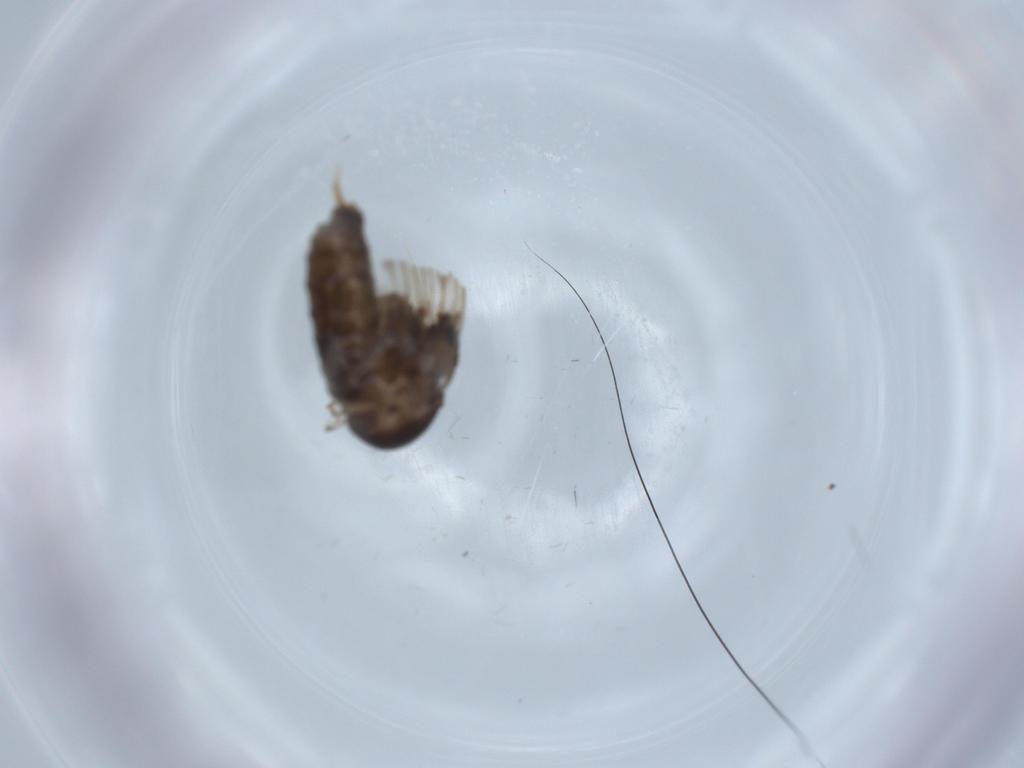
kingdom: Animalia
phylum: Arthropoda
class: Insecta
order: Diptera
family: Psychodidae
